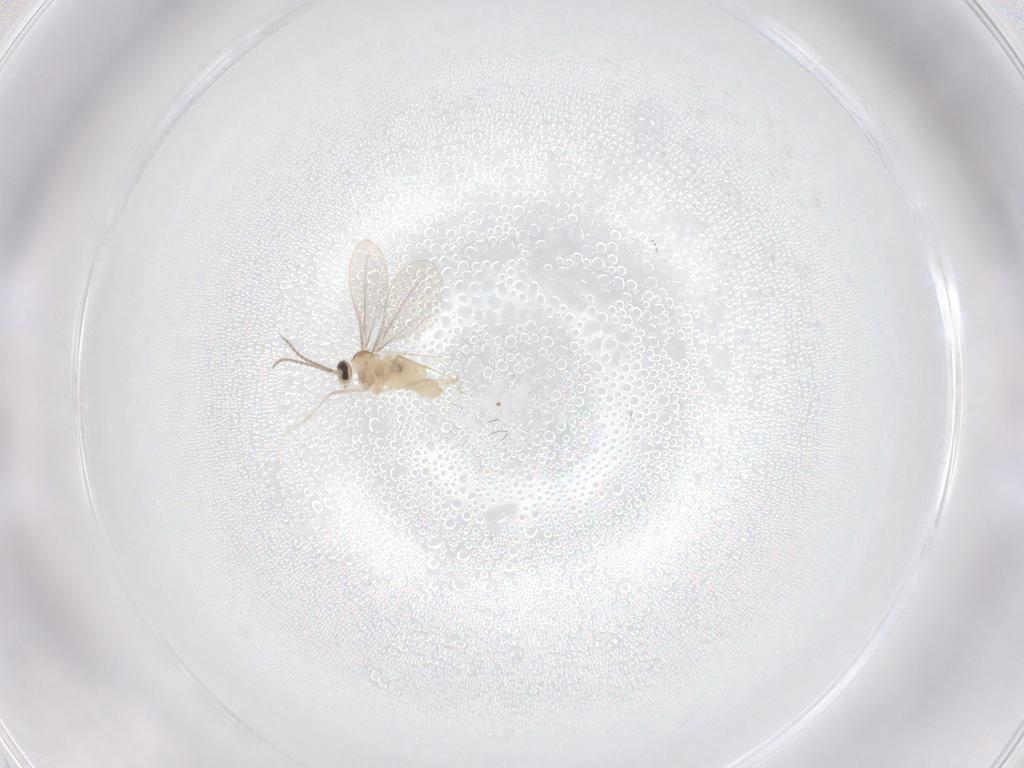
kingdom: Animalia
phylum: Arthropoda
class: Insecta
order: Diptera
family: Cecidomyiidae
